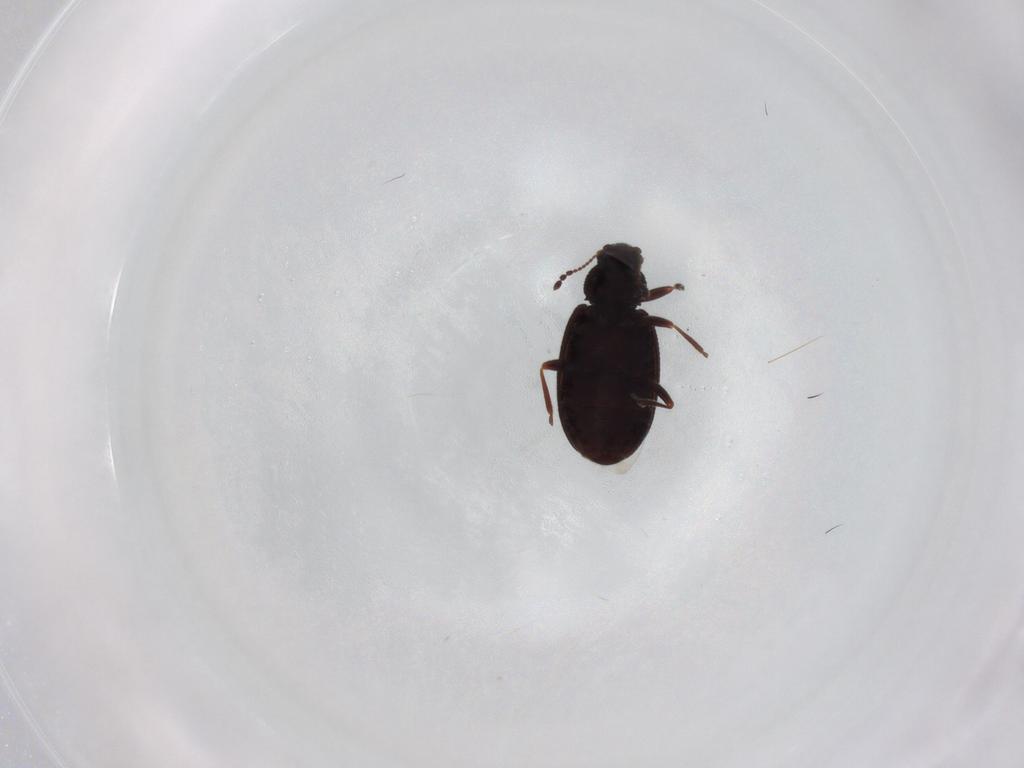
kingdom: Animalia
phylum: Arthropoda
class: Insecta
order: Coleoptera
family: Latridiidae
